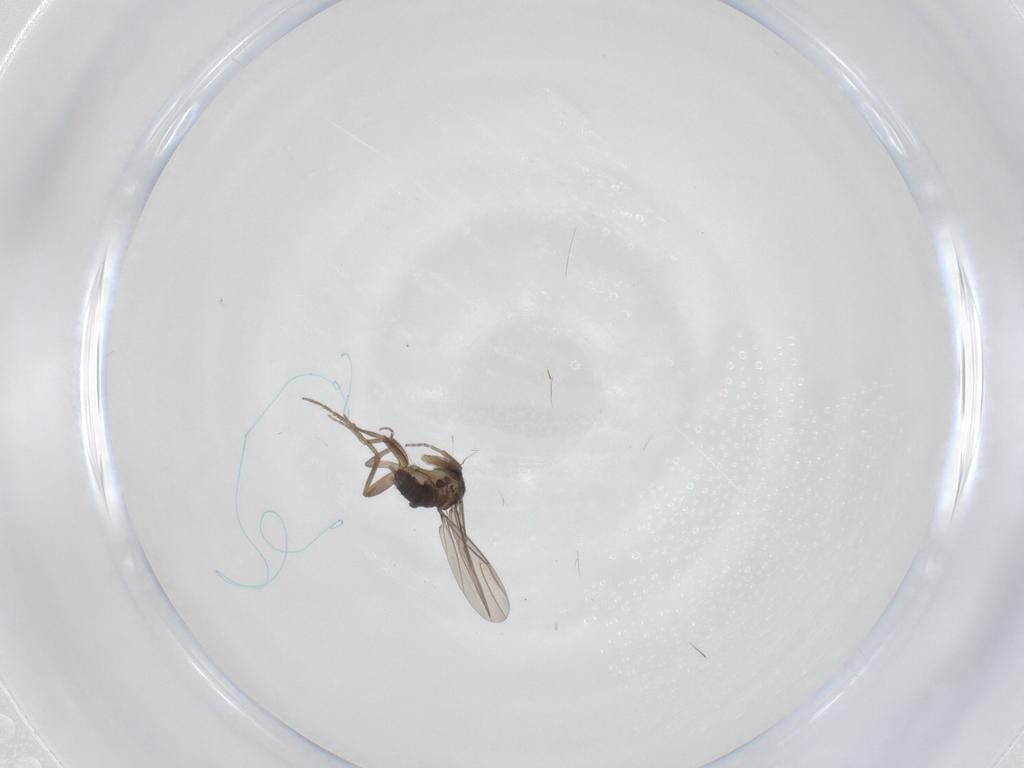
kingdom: Animalia
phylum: Arthropoda
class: Insecta
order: Diptera
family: Phoridae
